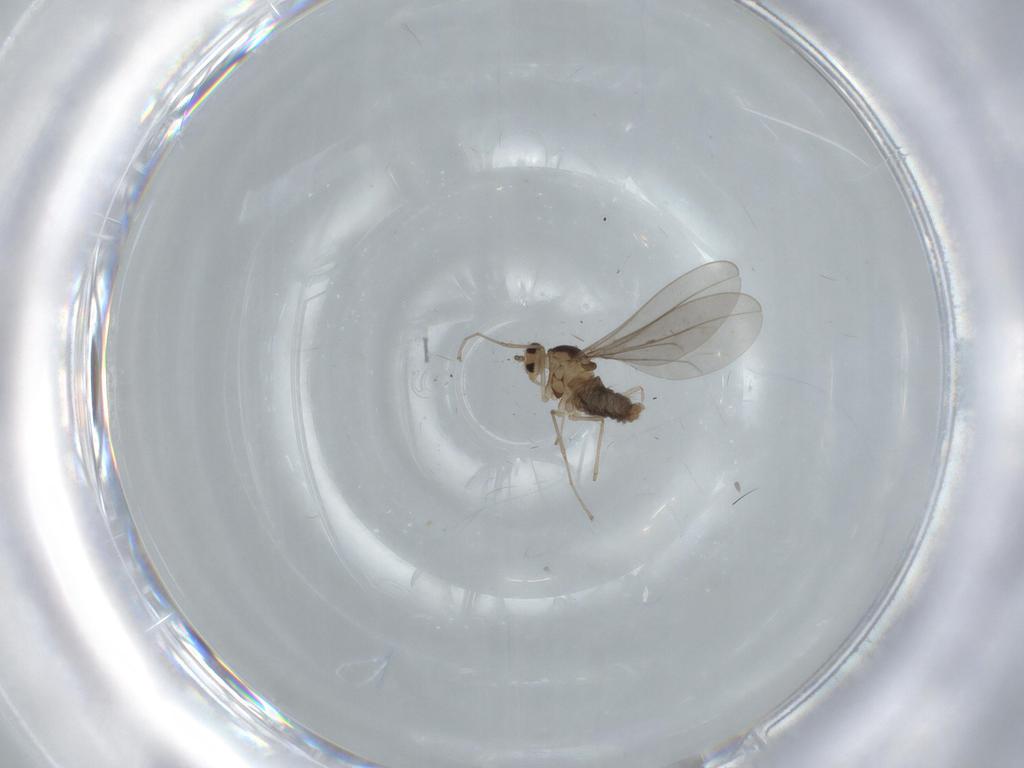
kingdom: Animalia
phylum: Arthropoda
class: Insecta
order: Diptera
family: Cecidomyiidae
